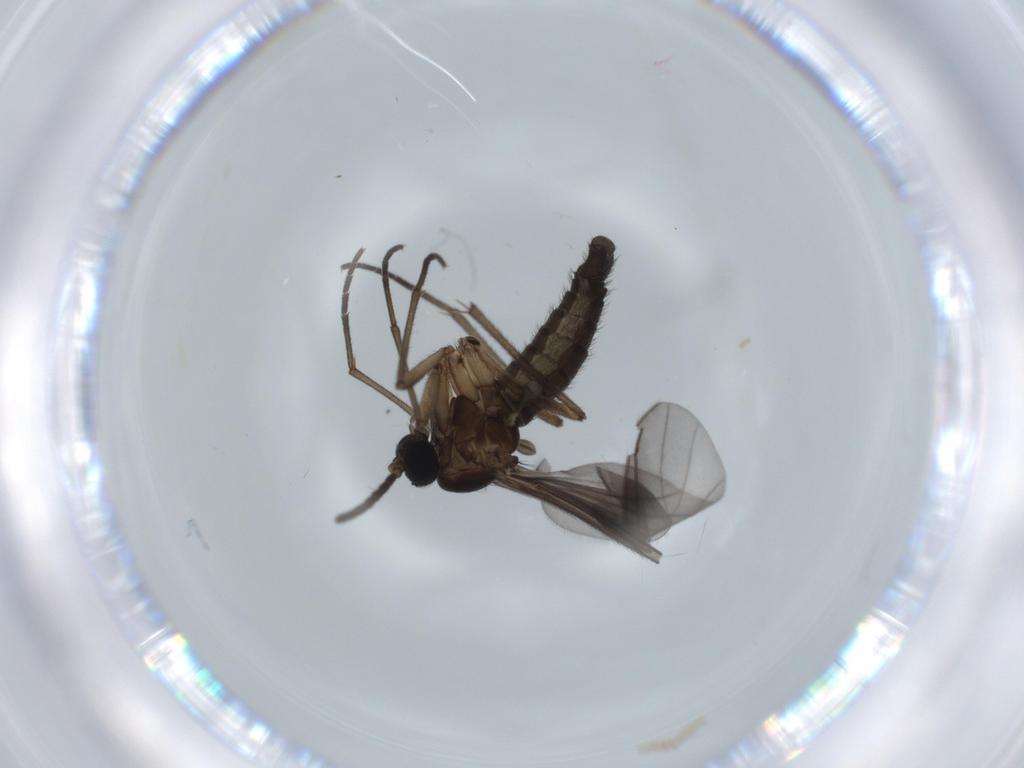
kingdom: Animalia
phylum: Arthropoda
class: Insecta
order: Diptera
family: Sciaridae
